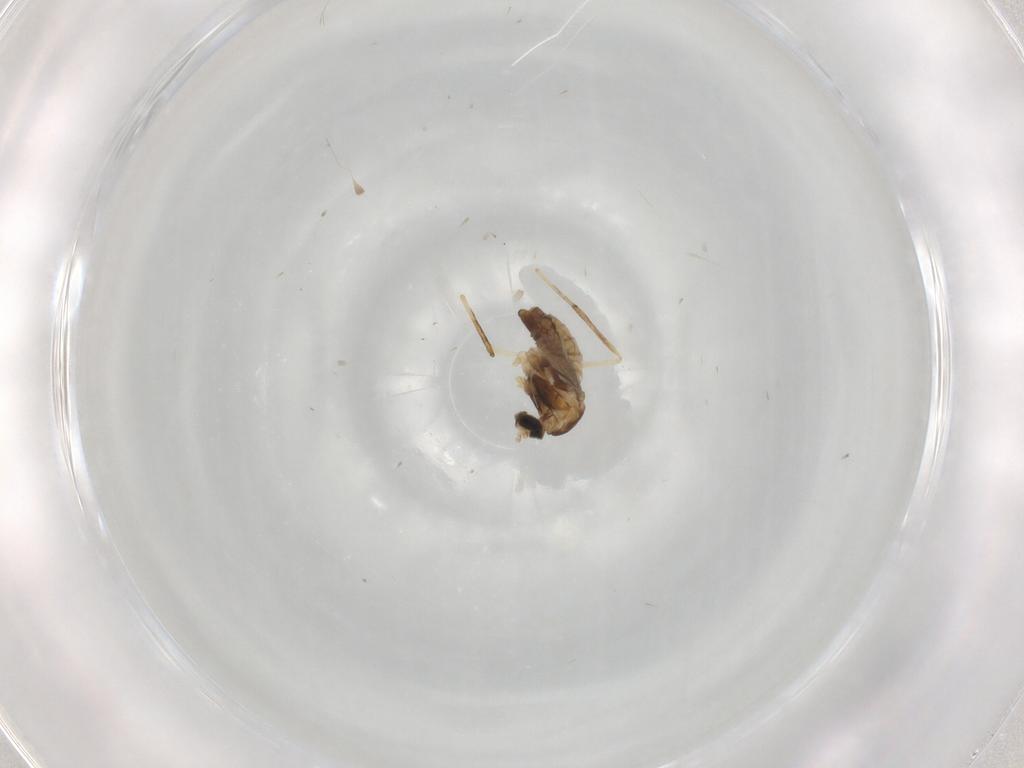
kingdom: Animalia
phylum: Arthropoda
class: Insecta
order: Diptera
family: Cecidomyiidae
